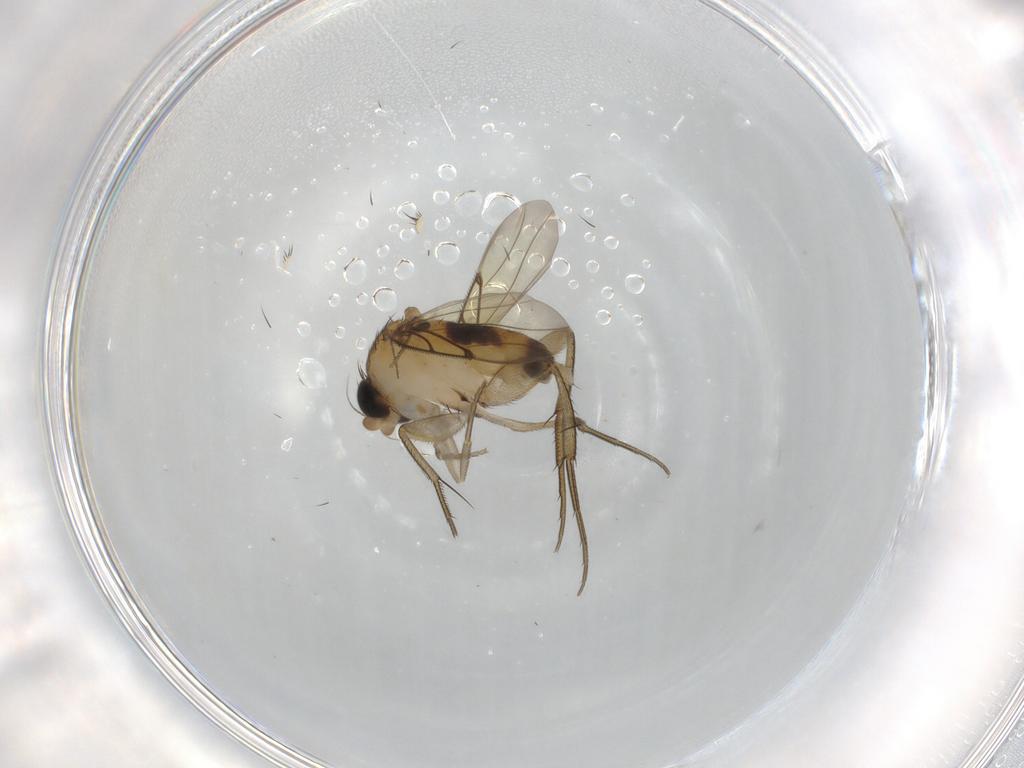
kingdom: Animalia
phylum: Arthropoda
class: Insecta
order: Diptera
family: Phoridae
